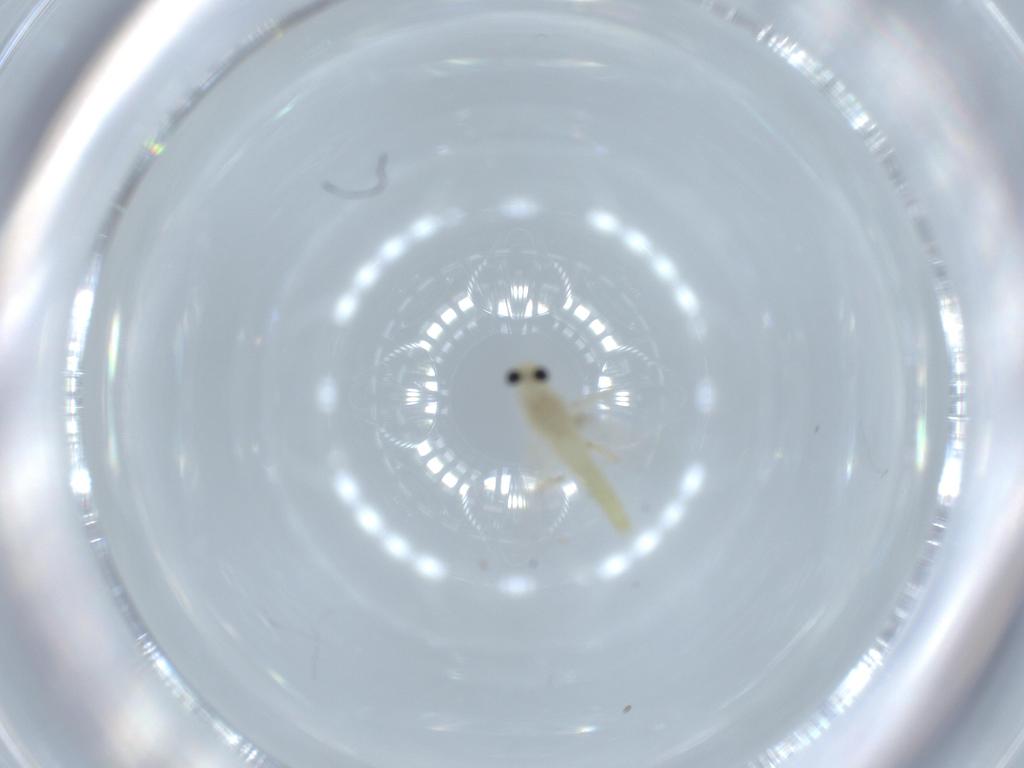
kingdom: Animalia
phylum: Arthropoda
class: Insecta
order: Diptera
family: Chironomidae
